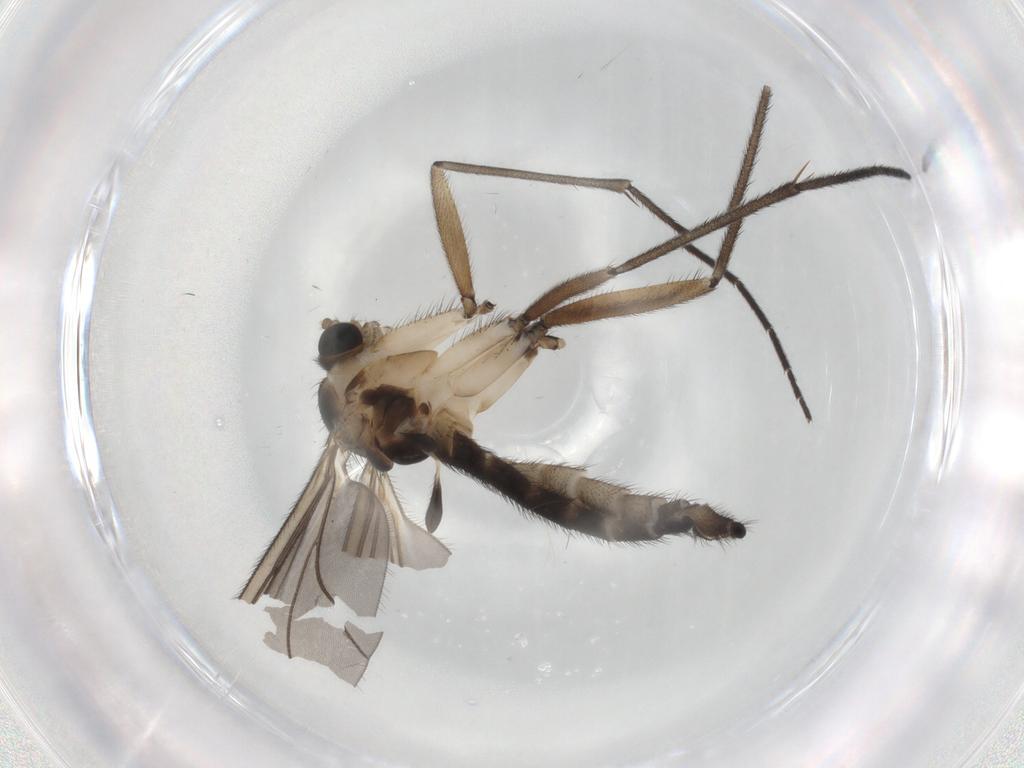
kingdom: Animalia
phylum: Arthropoda
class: Insecta
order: Diptera
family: Sciaridae
